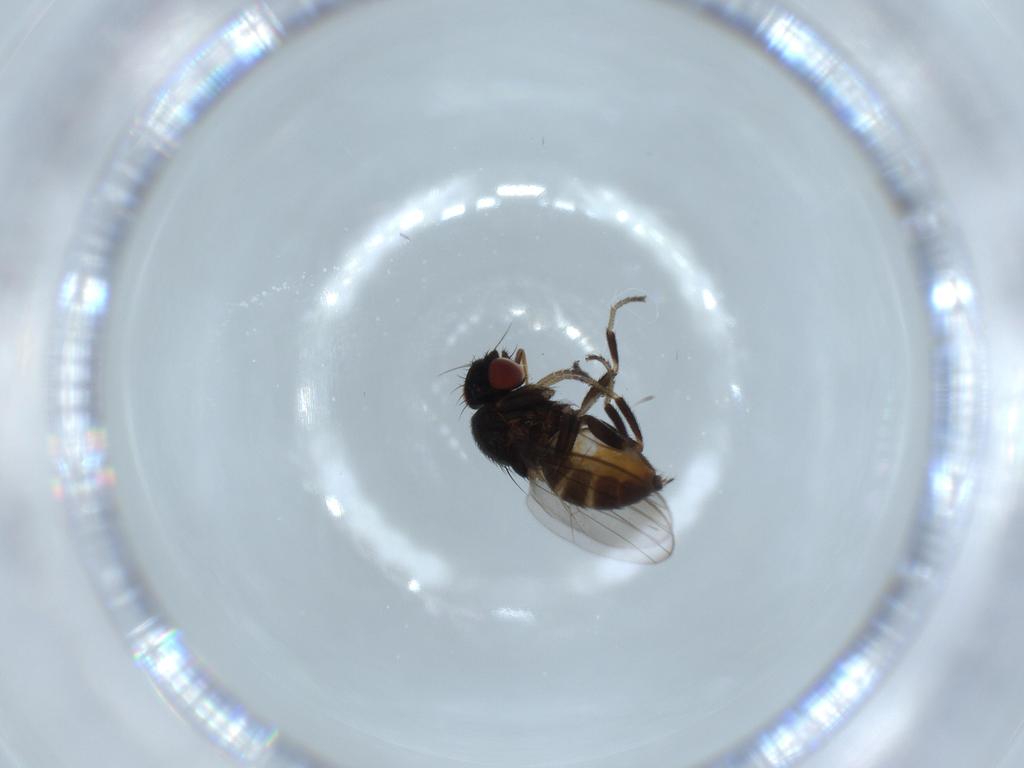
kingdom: Animalia
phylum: Arthropoda
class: Insecta
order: Diptera
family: Milichiidae
